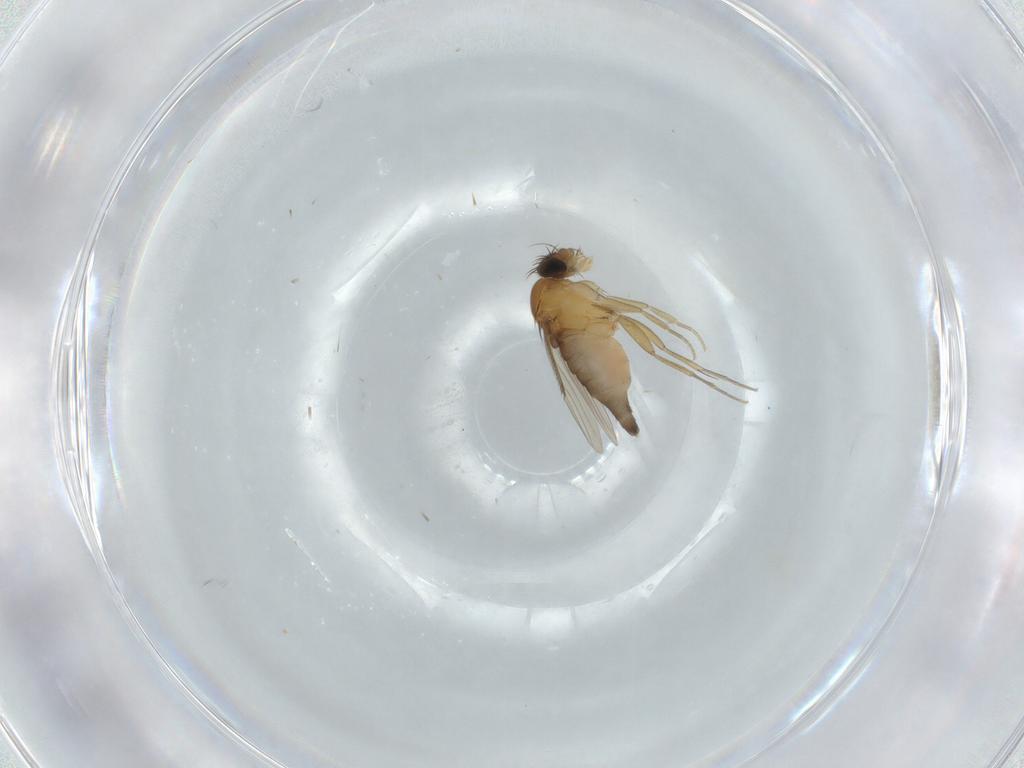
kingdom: Animalia
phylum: Arthropoda
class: Insecta
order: Diptera
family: Phoridae
